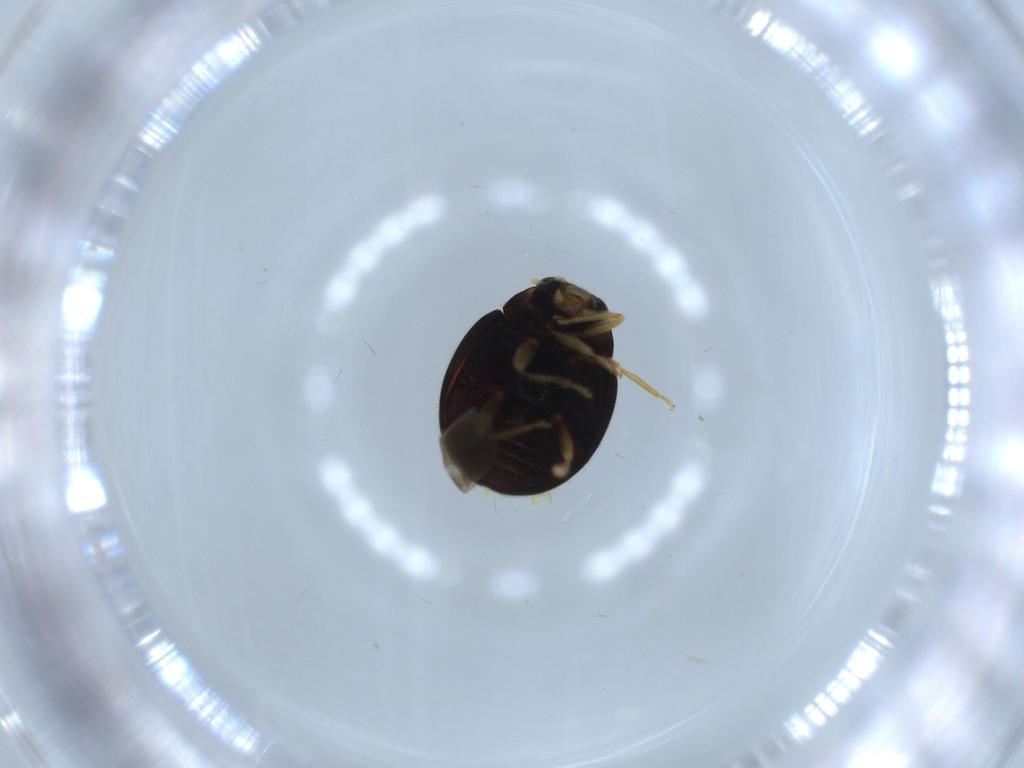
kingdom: Animalia
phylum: Arthropoda
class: Insecta
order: Coleoptera
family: Coccinellidae
